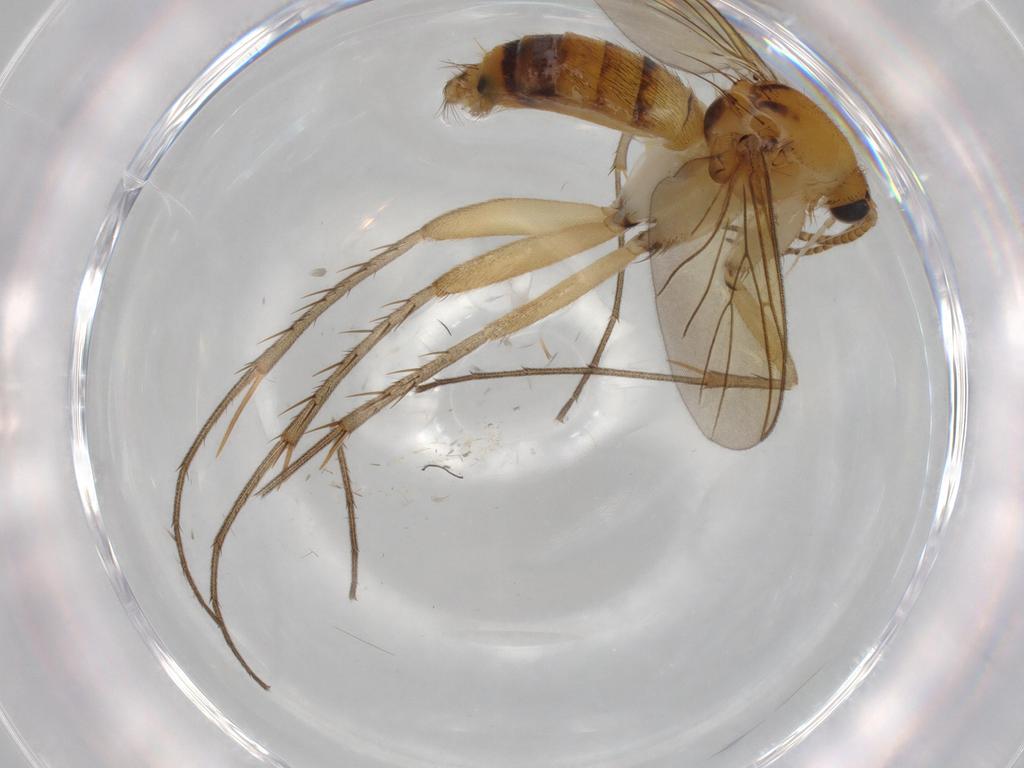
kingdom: Animalia
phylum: Arthropoda
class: Insecta
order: Diptera
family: Mycetophilidae
